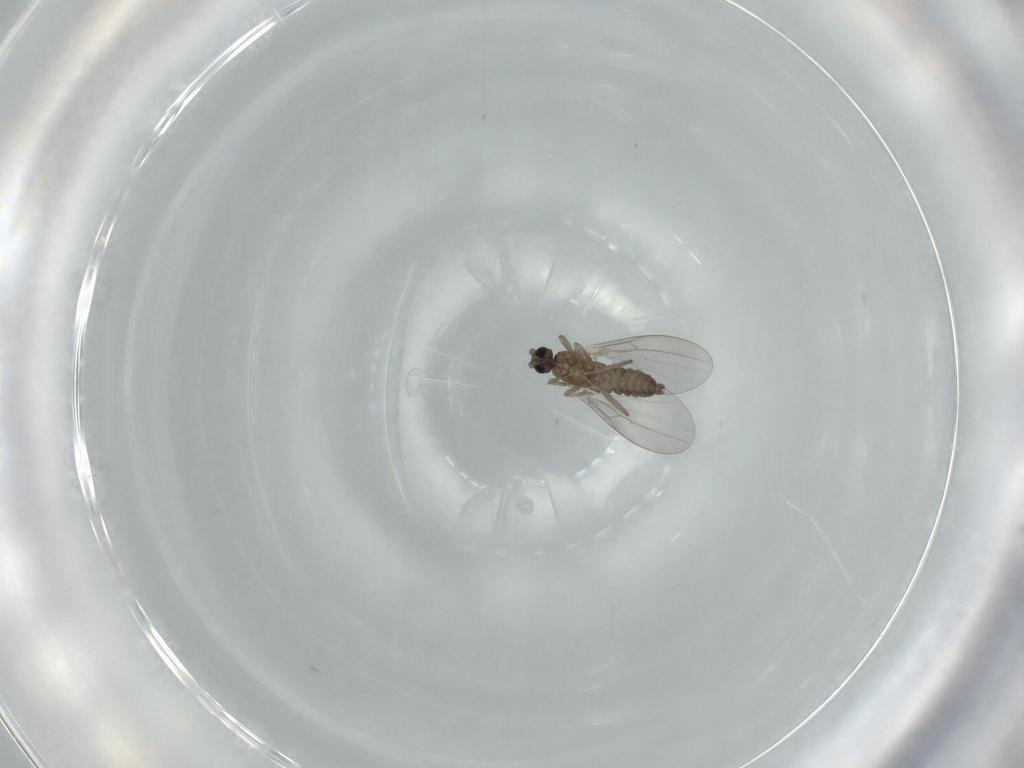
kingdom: Animalia
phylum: Arthropoda
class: Insecta
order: Diptera
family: Cecidomyiidae
